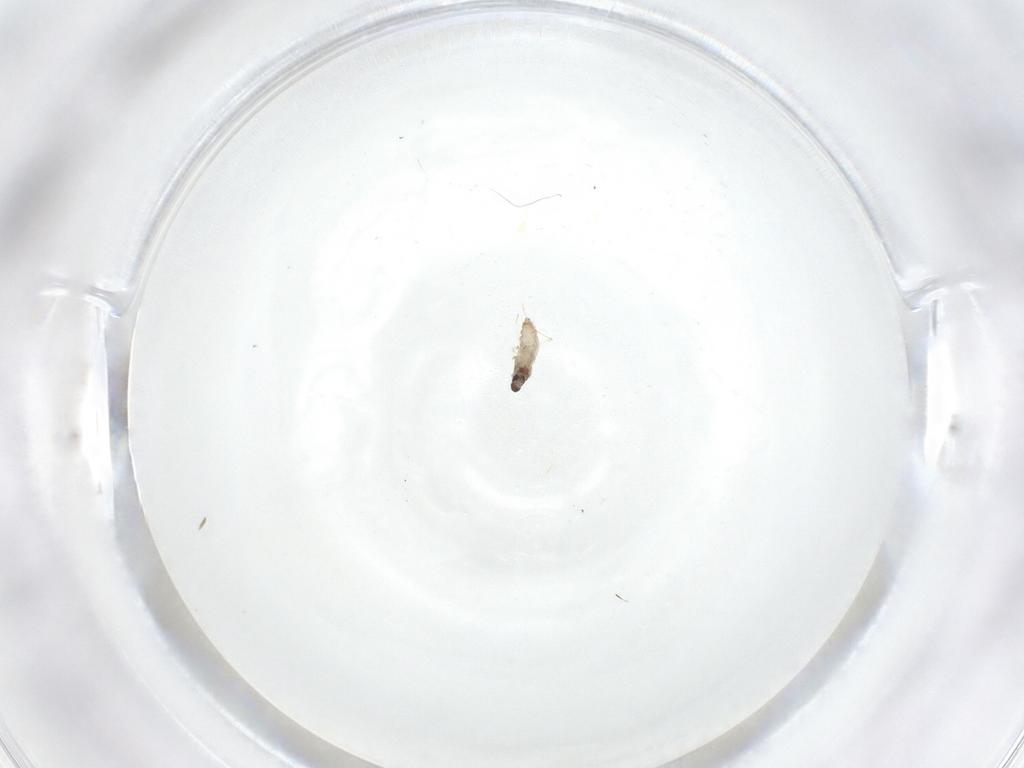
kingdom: Animalia
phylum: Arthropoda
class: Insecta
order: Diptera
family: Cecidomyiidae
